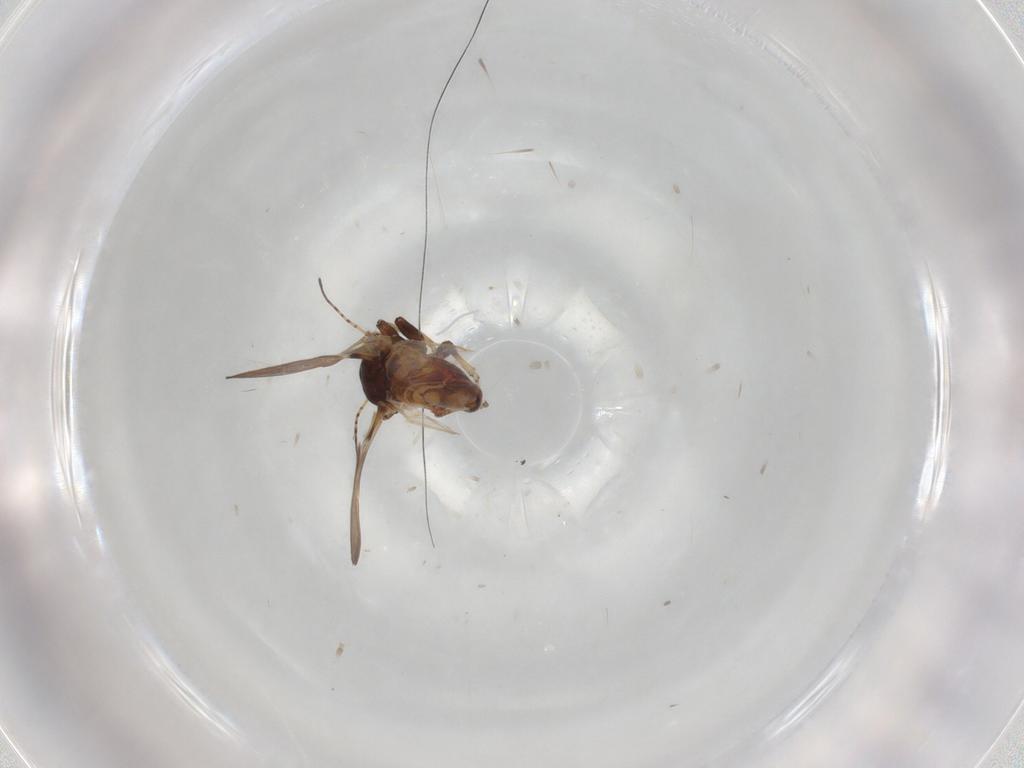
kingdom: Animalia
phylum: Arthropoda
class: Insecta
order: Hemiptera
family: Tettigometridae
